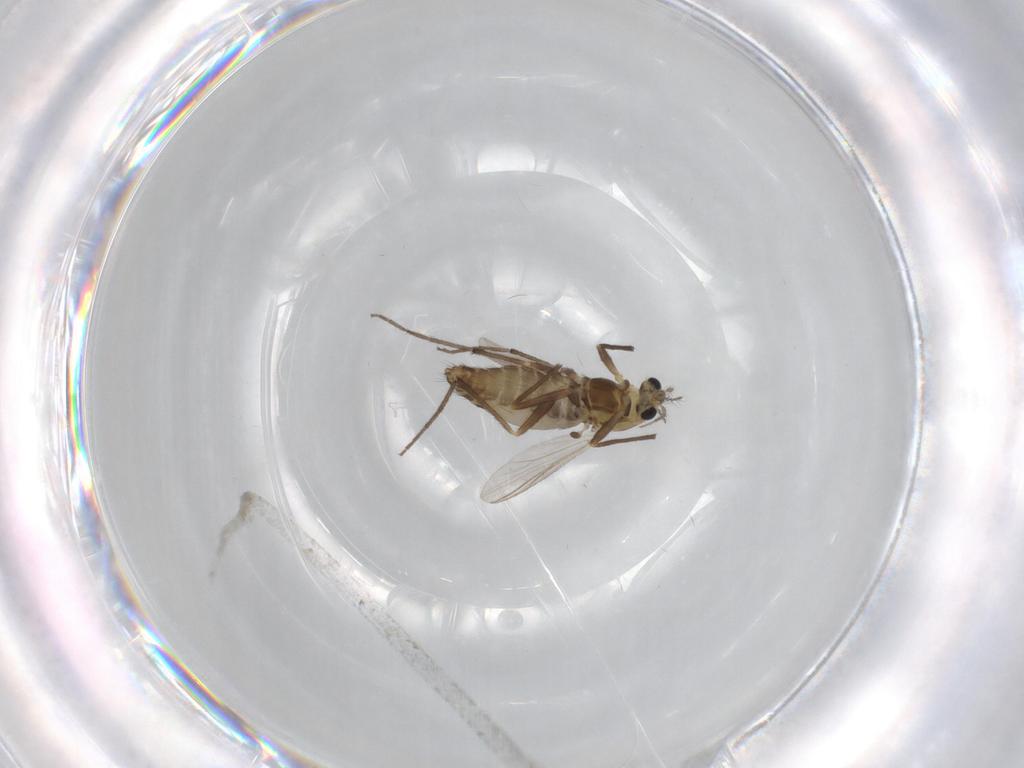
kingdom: Animalia
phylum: Arthropoda
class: Insecta
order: Diptera
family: Chironomidae
